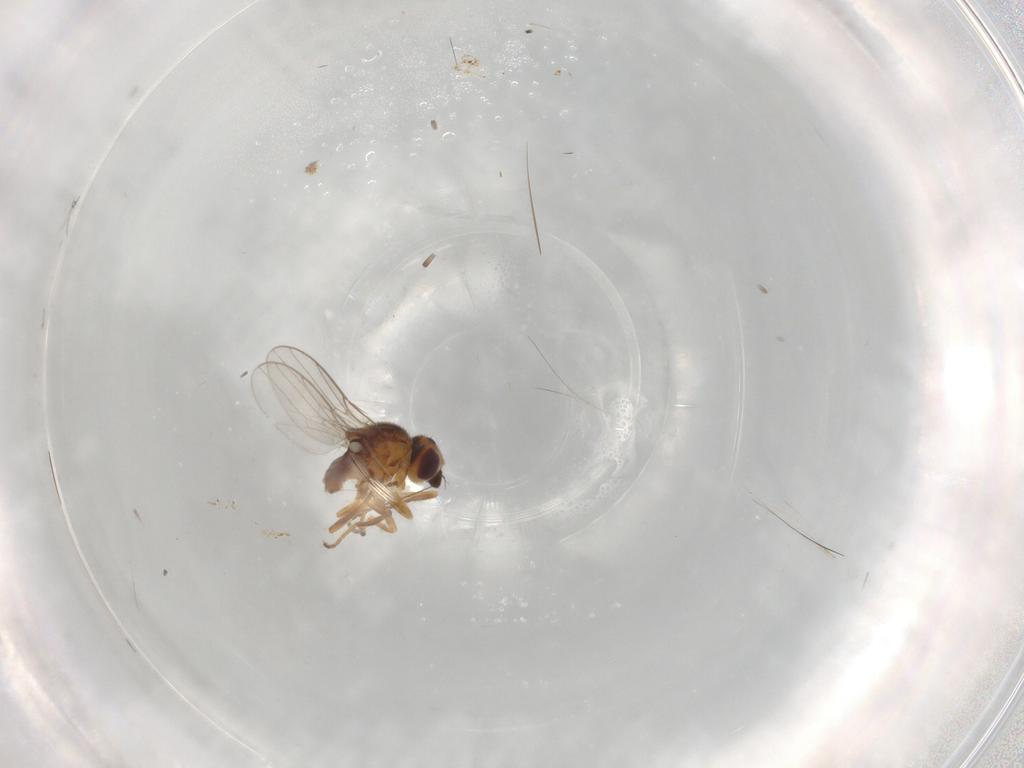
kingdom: Animalia
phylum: Arthropoda
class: Insecta
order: Diptera
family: Chloropidae
